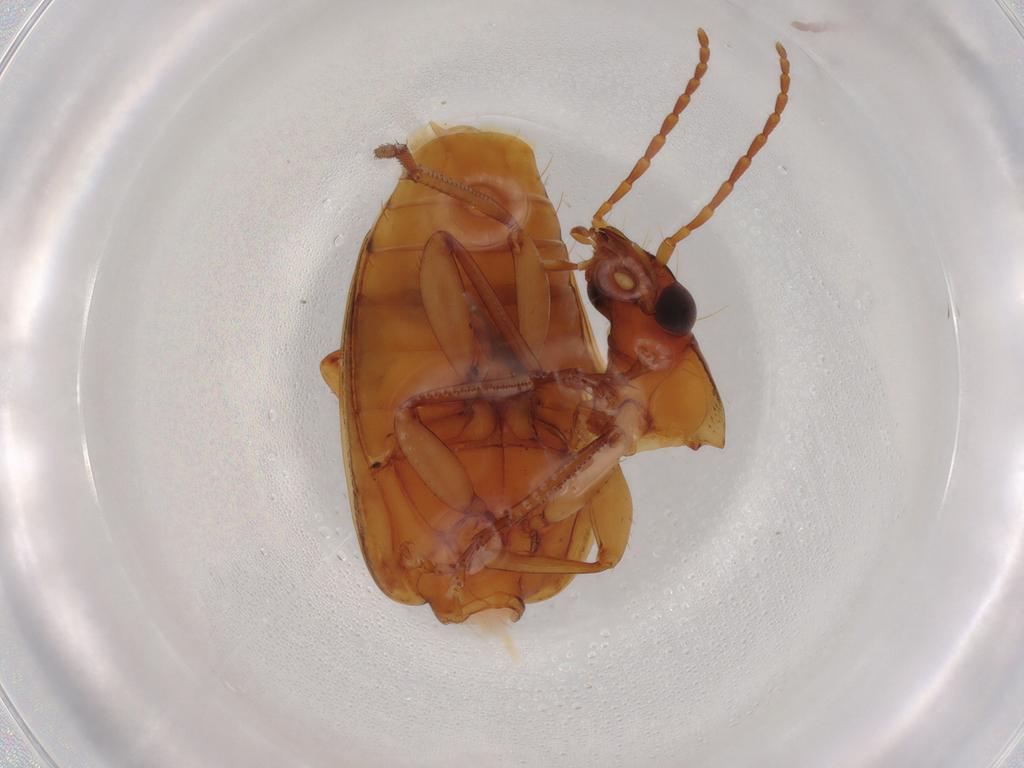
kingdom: Animalia
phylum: Arthropoda
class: Insecta
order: Coleoptera
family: Carabidae
